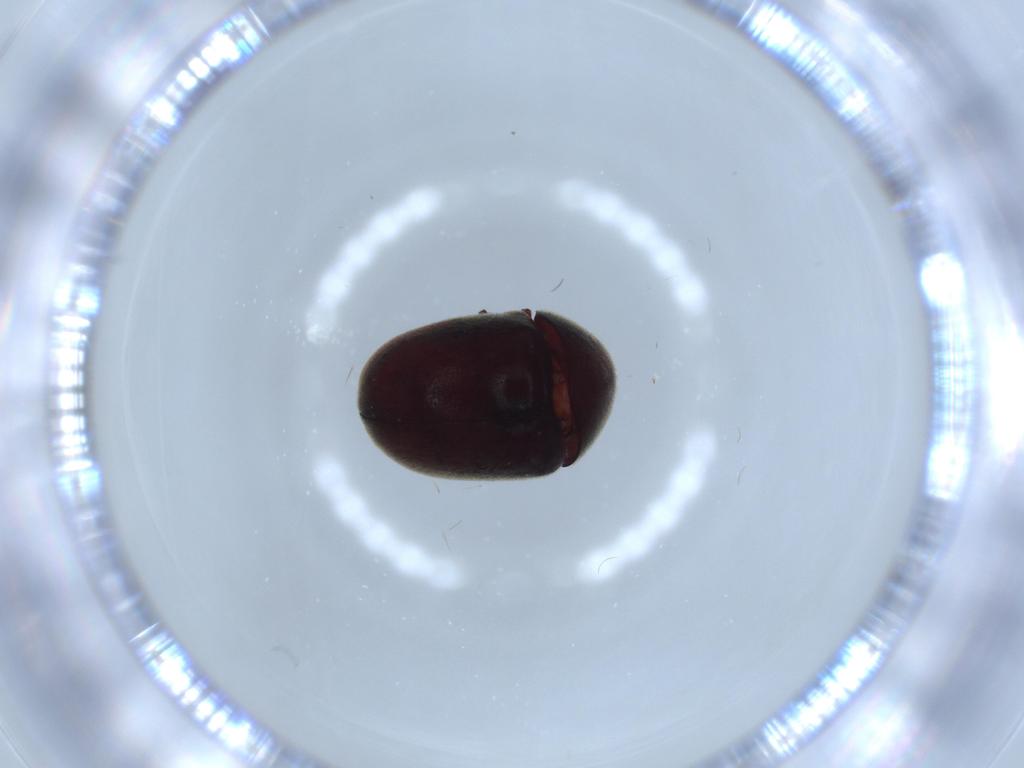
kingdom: Animalia
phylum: Arthropoda
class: Insecta
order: Coleoptera
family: Ptinidae
